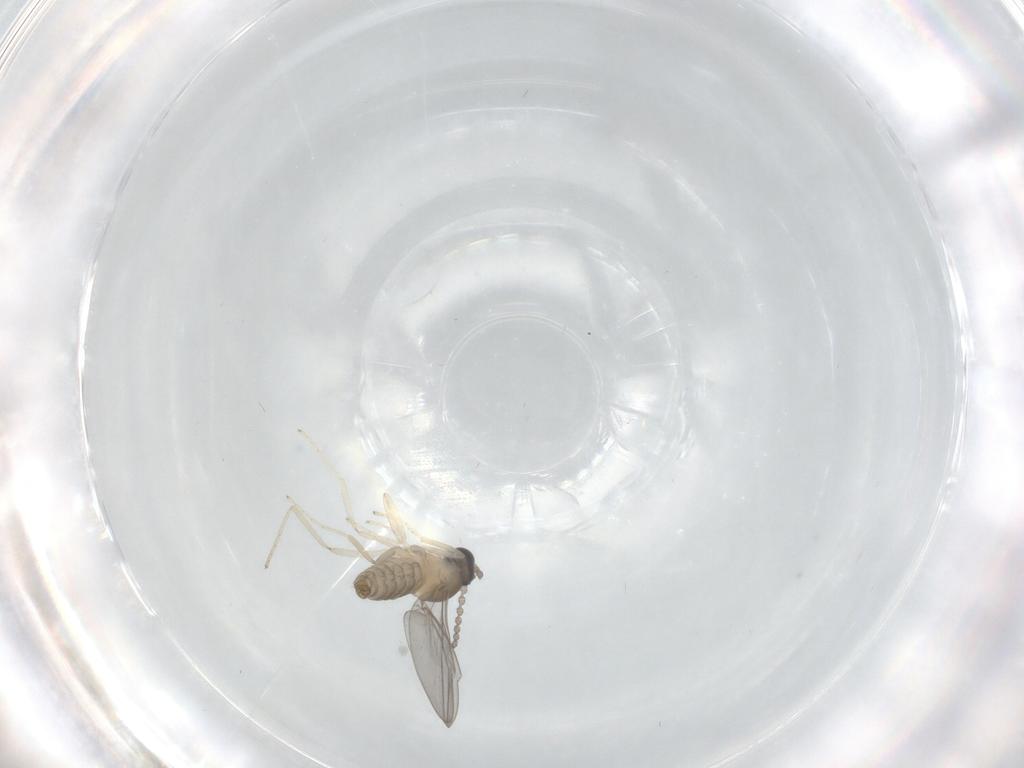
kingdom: Animalia
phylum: Arthropoda
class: Insecta
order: Diptera
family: Cecidomyiidae
